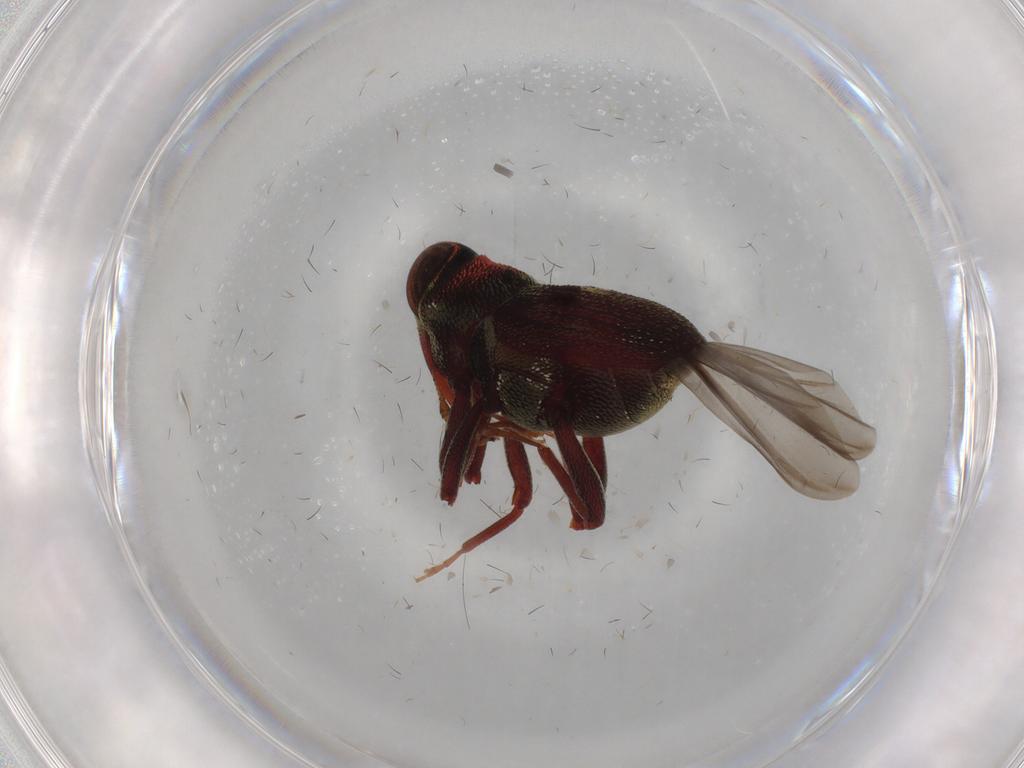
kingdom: Animalia
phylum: Arthropoda
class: Insecta
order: Coleoptera
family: Curculionidae
